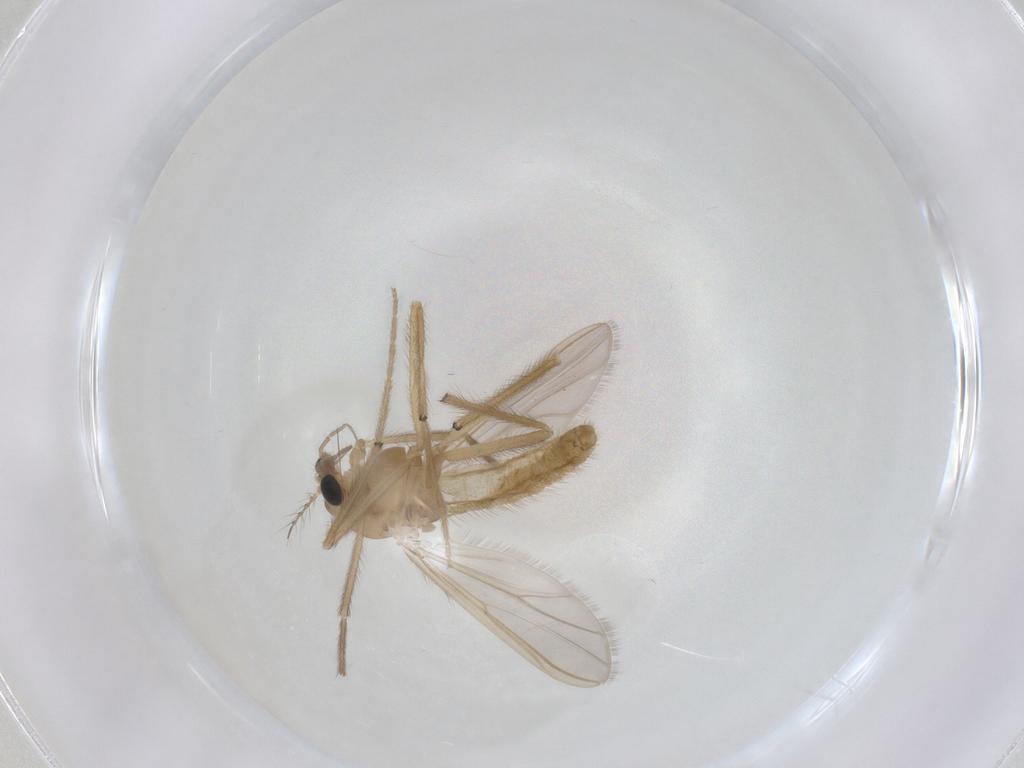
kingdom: Animalia
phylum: Arthropoda
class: Insecta
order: Diptera
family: Chironomidae
